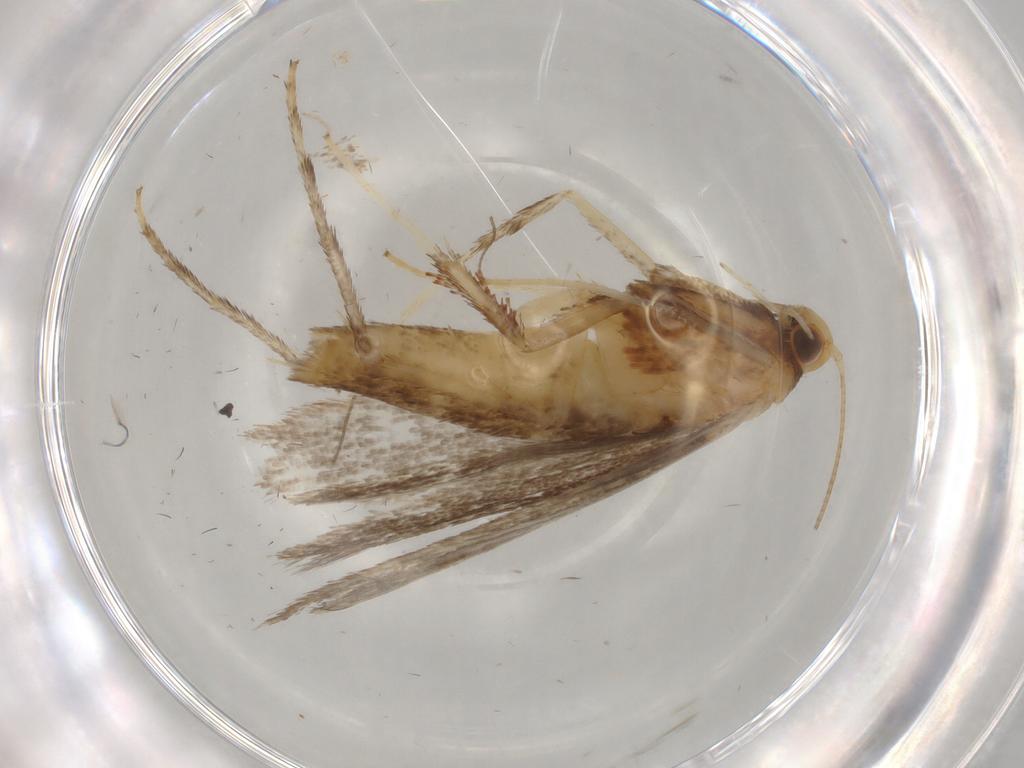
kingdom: Animalia
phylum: Arthropoda
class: Insecta
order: Lepidoptera
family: Gracillariidae
